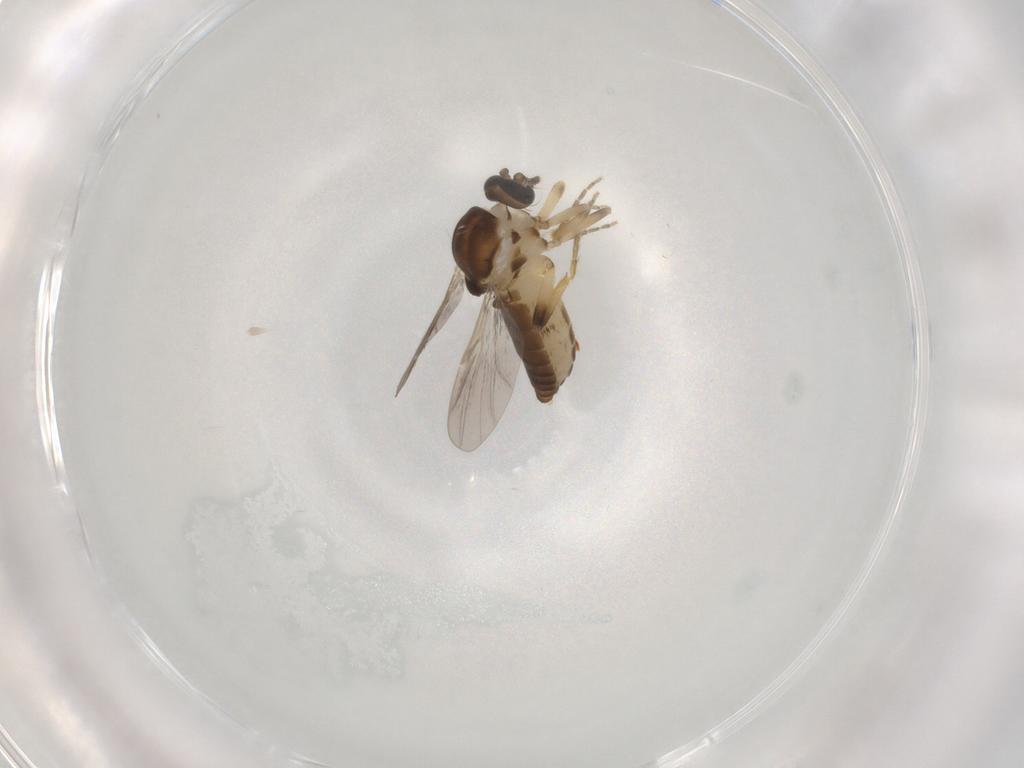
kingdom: Animalia
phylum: Arthropoda
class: Insecta
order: Diptera
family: Ceratopogonidae
